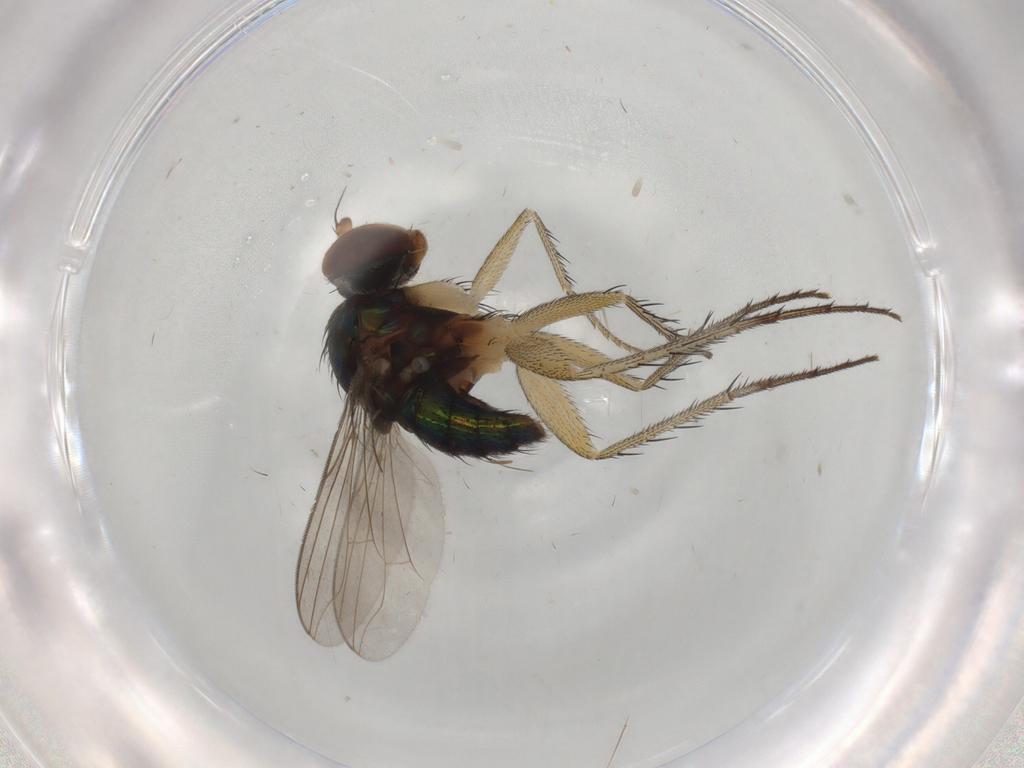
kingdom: Animalia
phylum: Arthropoda
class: Insecta
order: Diptera
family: Dolichopodidae
